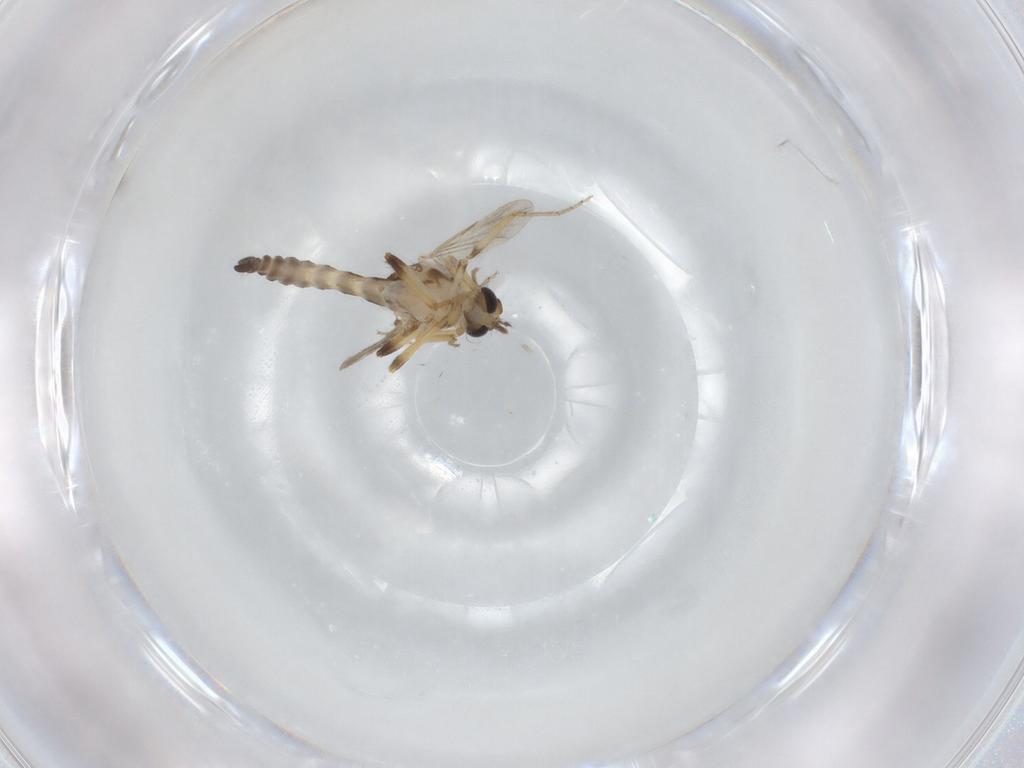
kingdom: Animalia
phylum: Arthropoda
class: Insecta
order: Diptera
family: Ceratopogonidae
